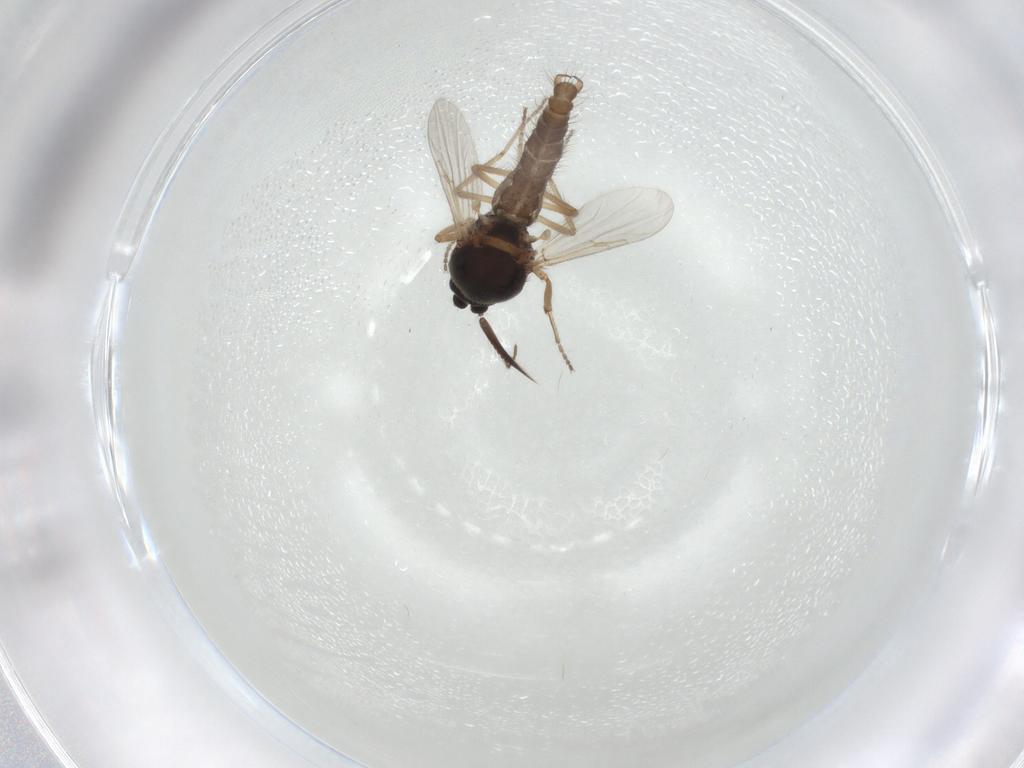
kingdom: Animalia
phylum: Arthropoda
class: Insecta
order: Diptera
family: Ceratopogonidae
